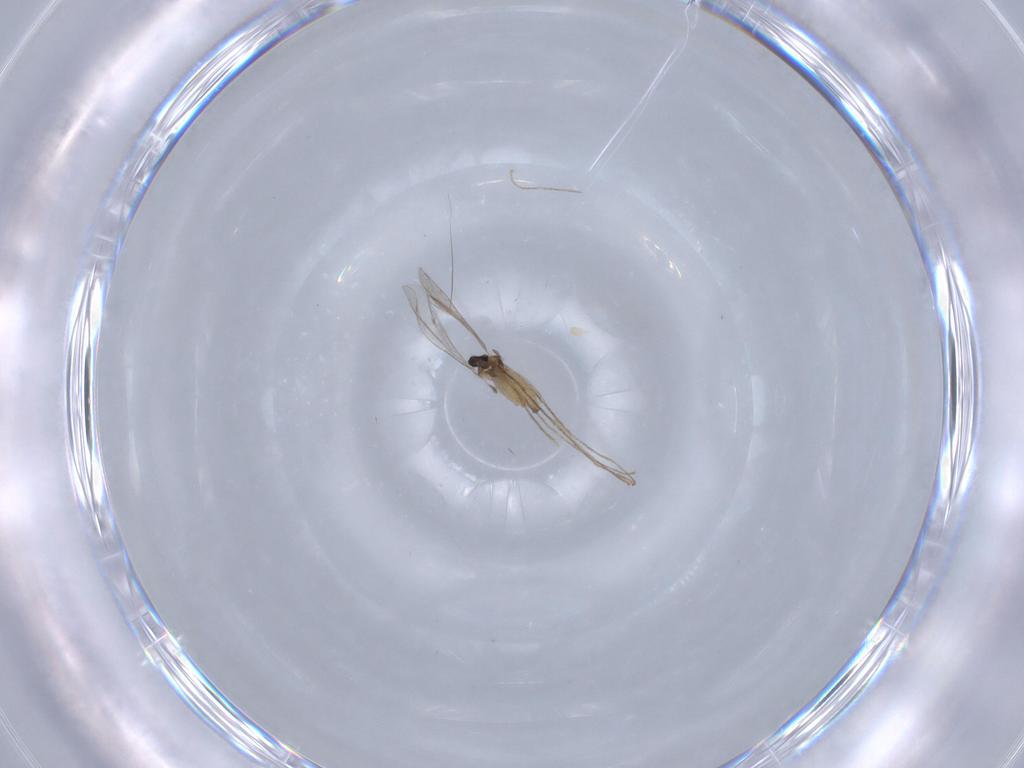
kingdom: Animalia
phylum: Arthropoda
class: Insecta
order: Diptera
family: Cecidomyiidae
